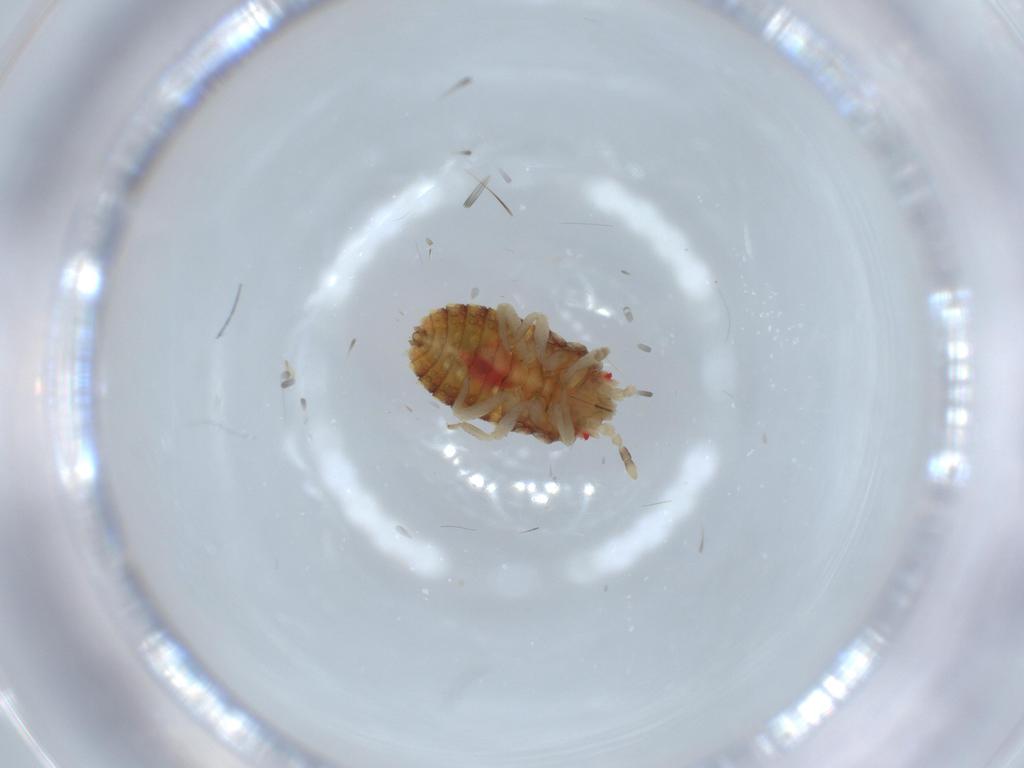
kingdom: Animalia
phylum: Arthropoda
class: Insecta
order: Hemiptera
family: Aradidae
